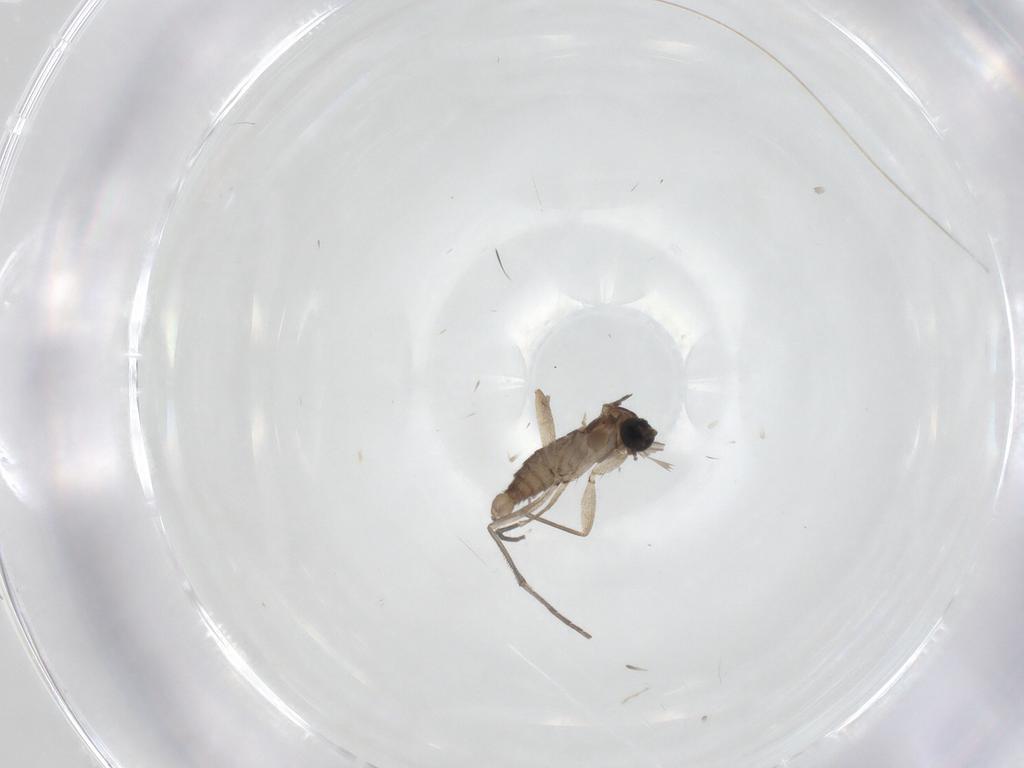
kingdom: Animalia
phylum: Arthropoda
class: Insecta
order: Diptera
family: Sciaridae
